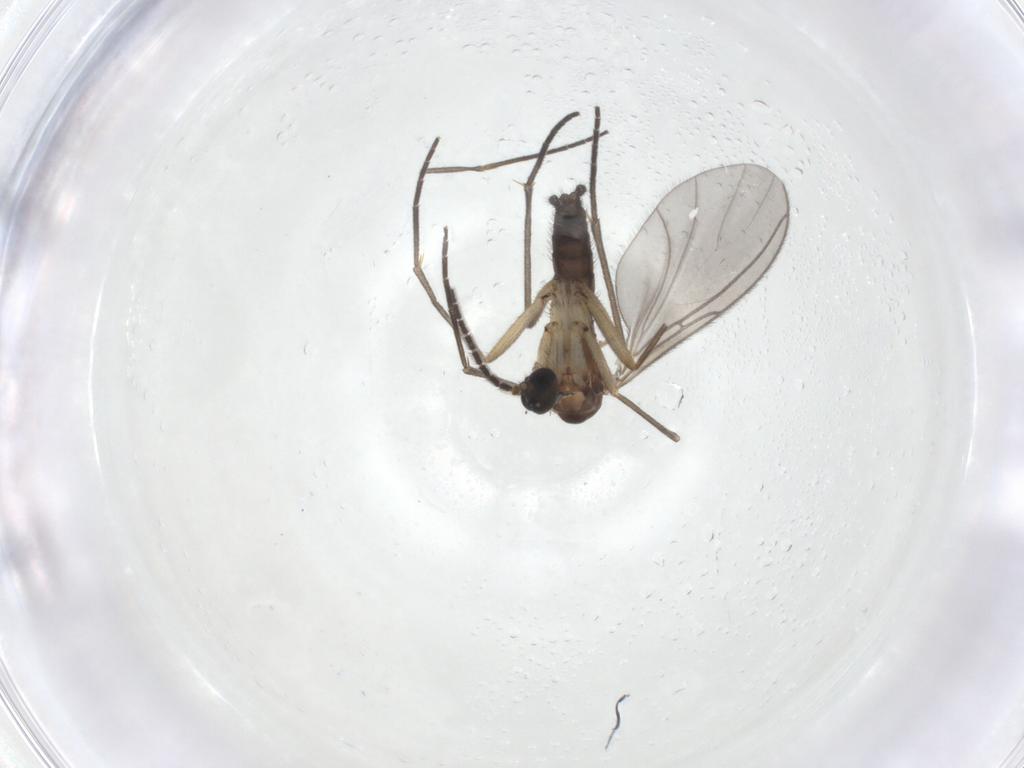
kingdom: Animalia
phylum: Arthropoda
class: Insecta
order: Diptera
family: Sciaridae
